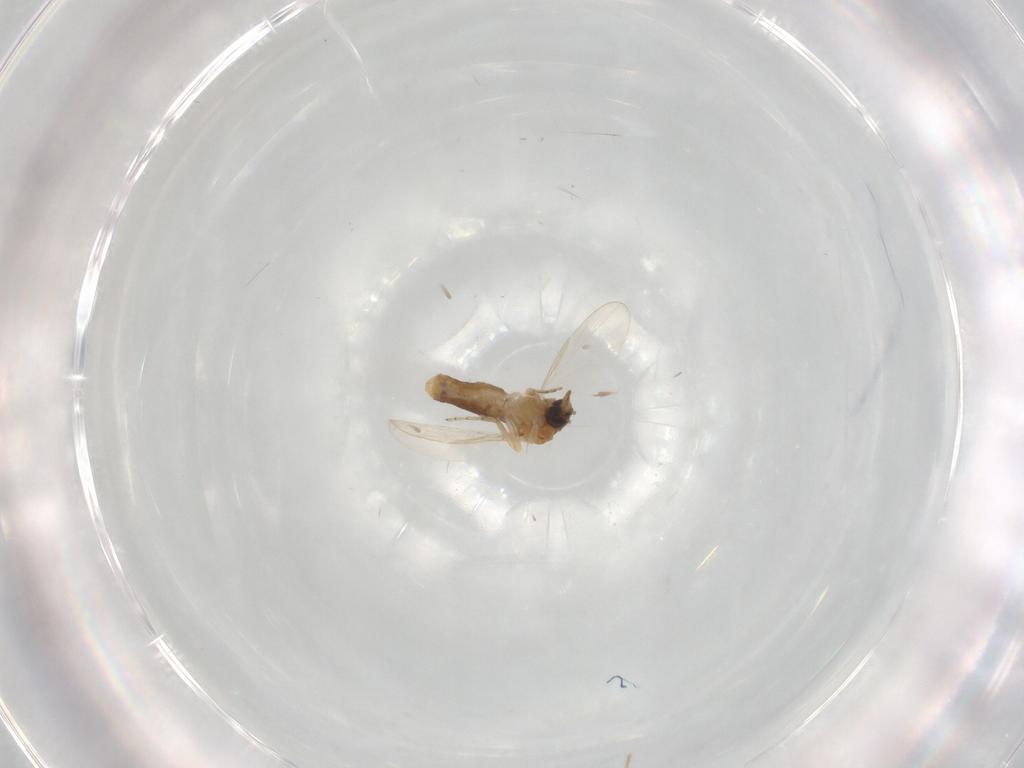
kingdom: Animalia
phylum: Arthropoda
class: Insecta
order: Diptera
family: Ceratopogonidae
